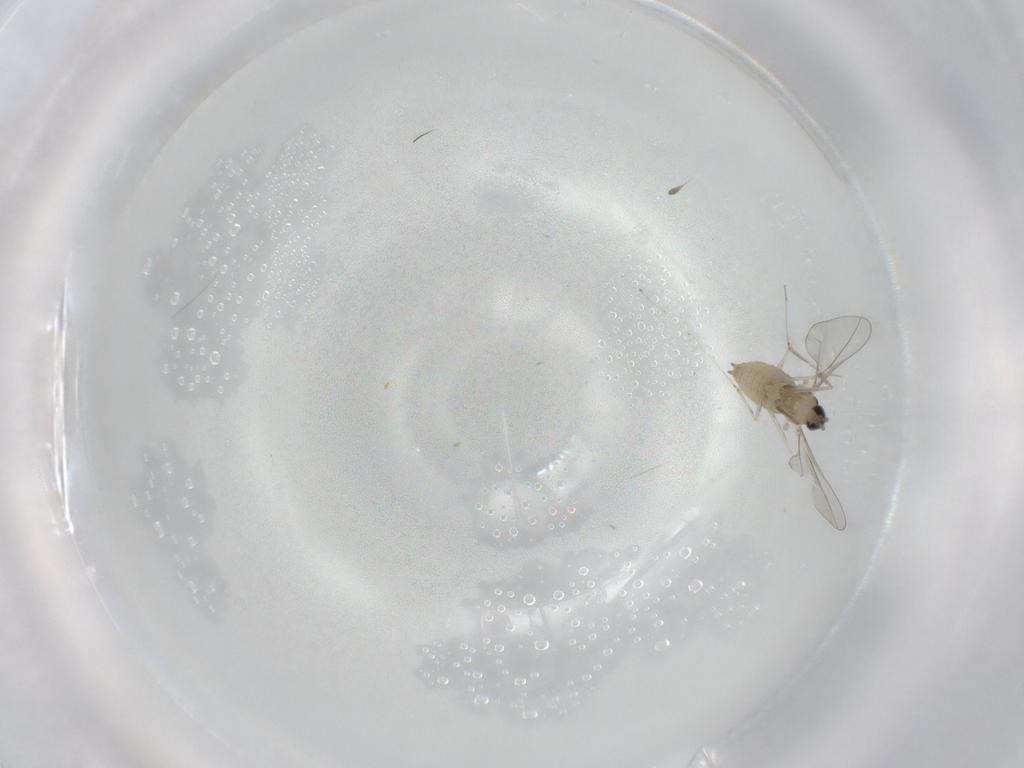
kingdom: Animalia
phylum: Arthropoda
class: Insecta
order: Diptera
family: Cecidomyiidae
